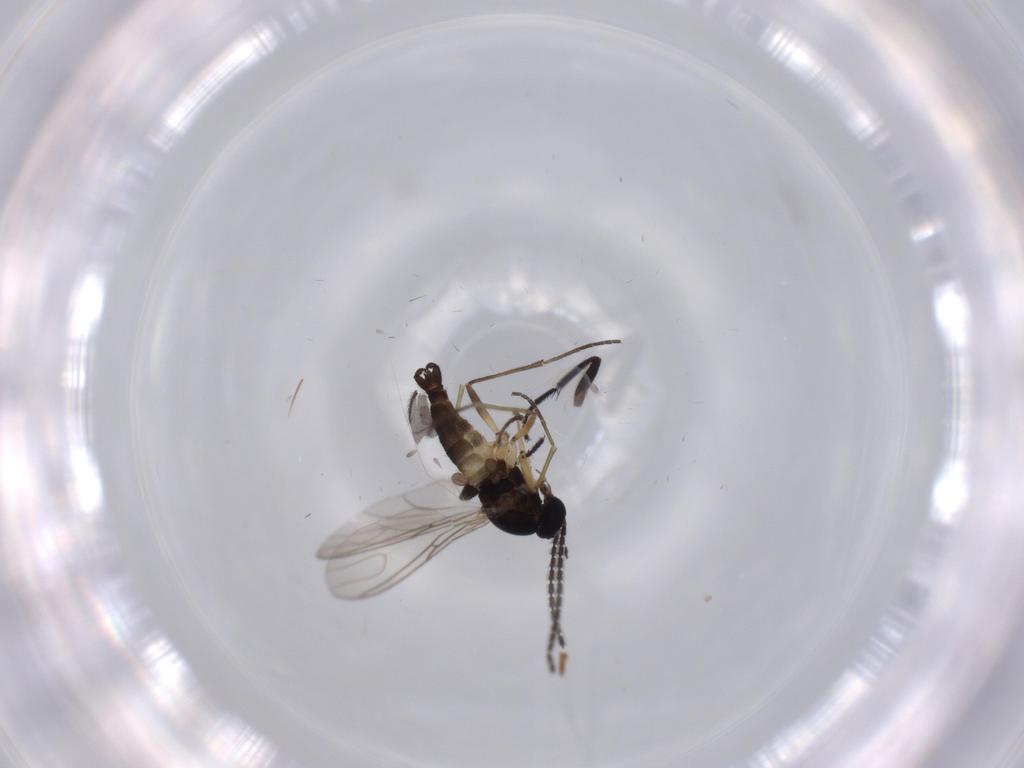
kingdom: Animalia
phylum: Arthropoda
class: Insecta
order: Diptera
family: Sciaridae
